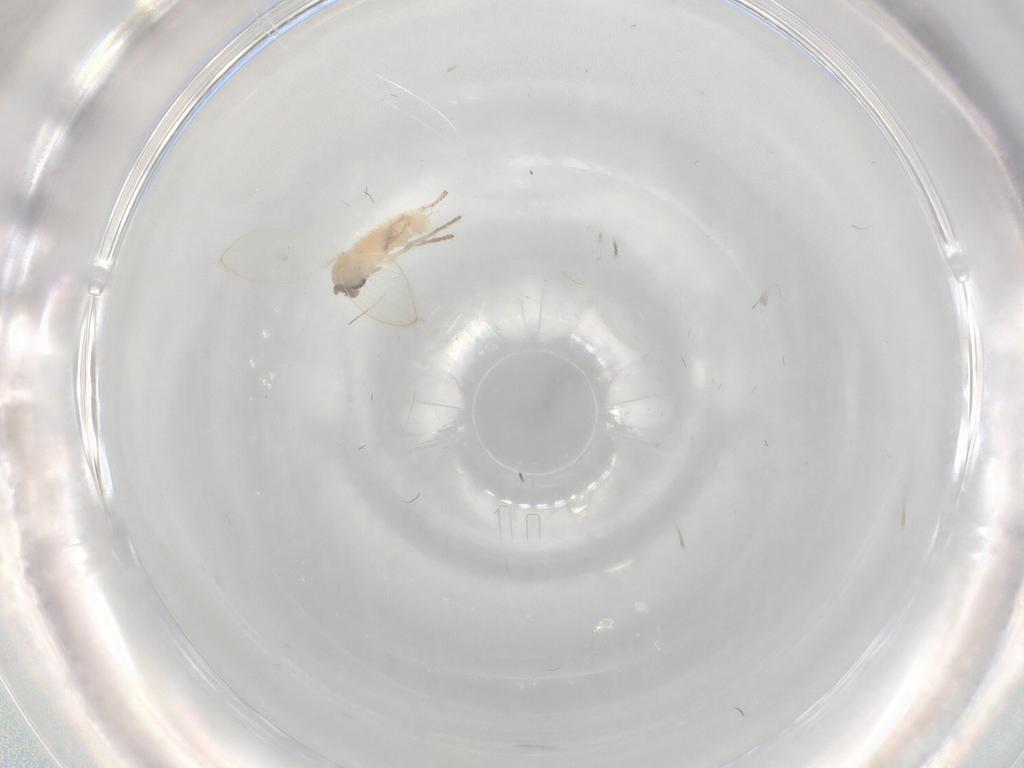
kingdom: Animalia
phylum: Arthropoda
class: Insecta
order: Diptera
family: Psychodidae
